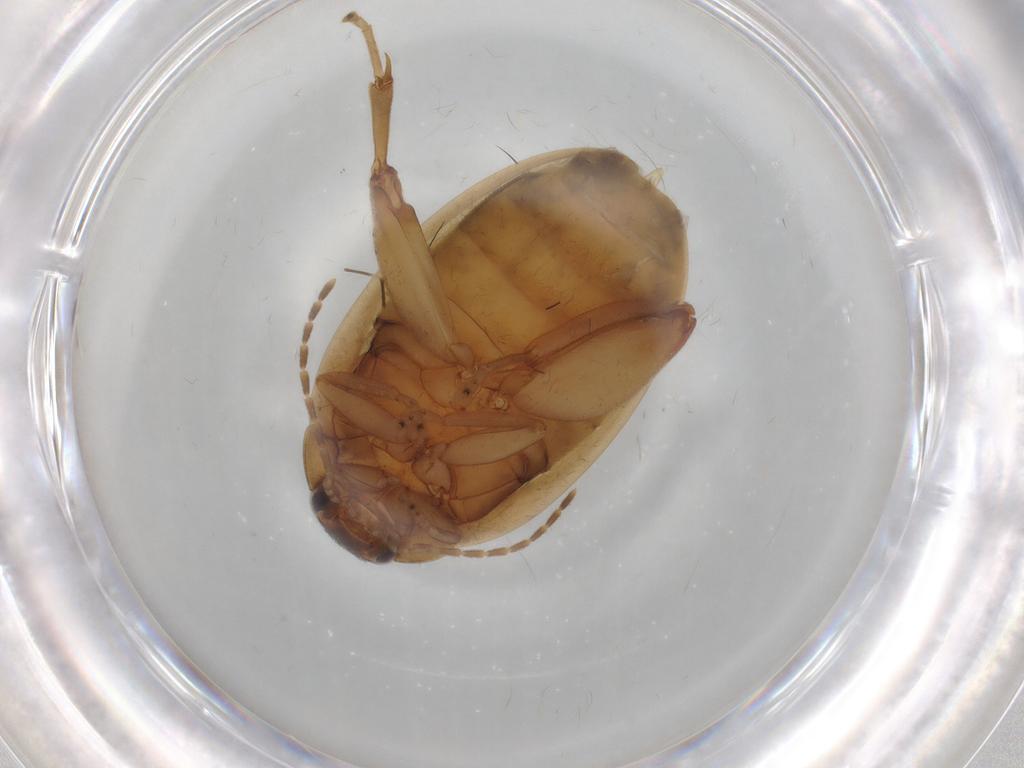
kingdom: Animalia
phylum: Arthropoda
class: Insecta
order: Coleoptera
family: Scirtidae
